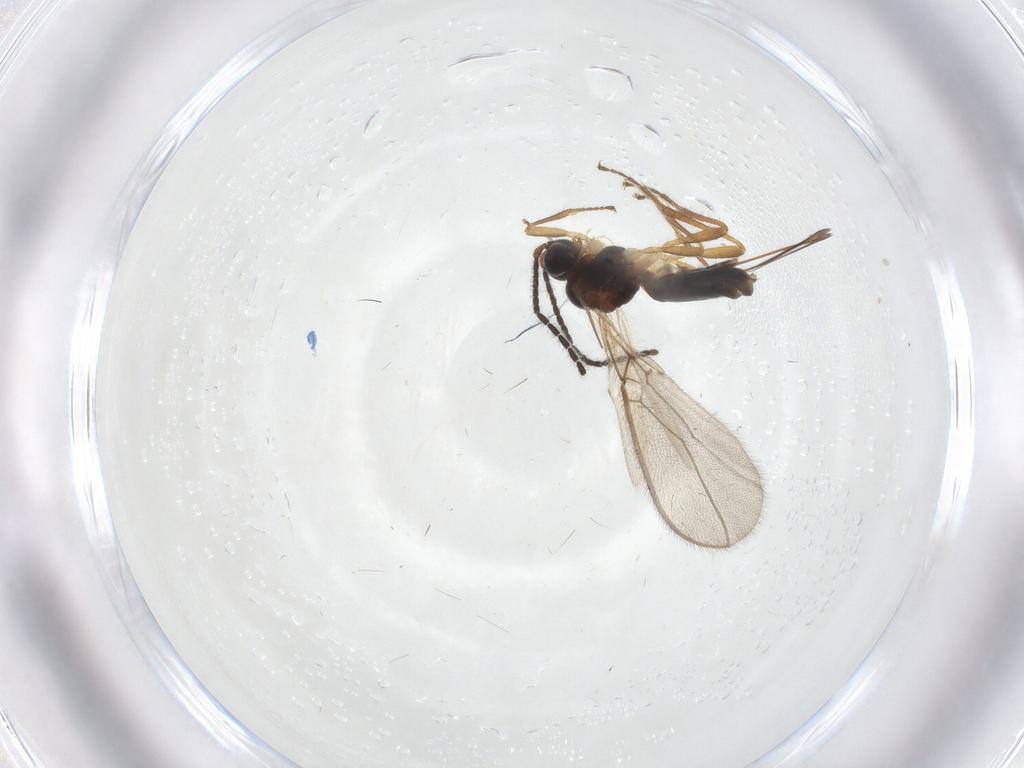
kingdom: Animalia
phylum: Arthropoda
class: Insecta
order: Hymenoptera
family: Braconidae
